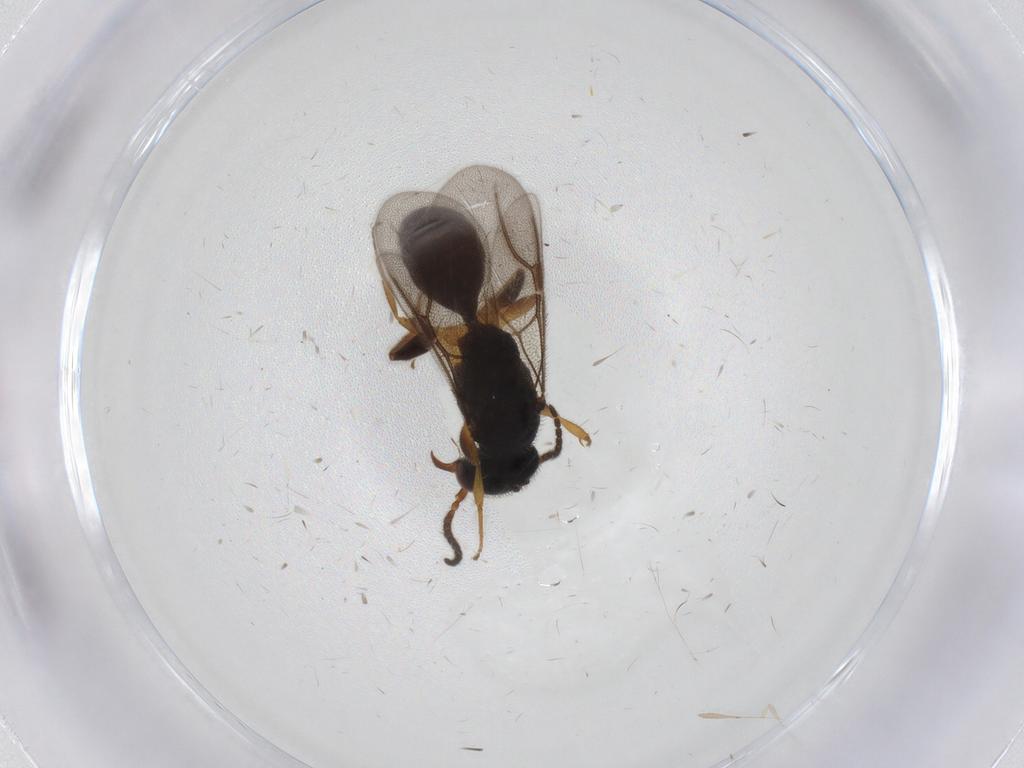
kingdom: Animalia
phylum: Arthropoda
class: Insecta
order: Hymenoptera
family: Bethylidae
